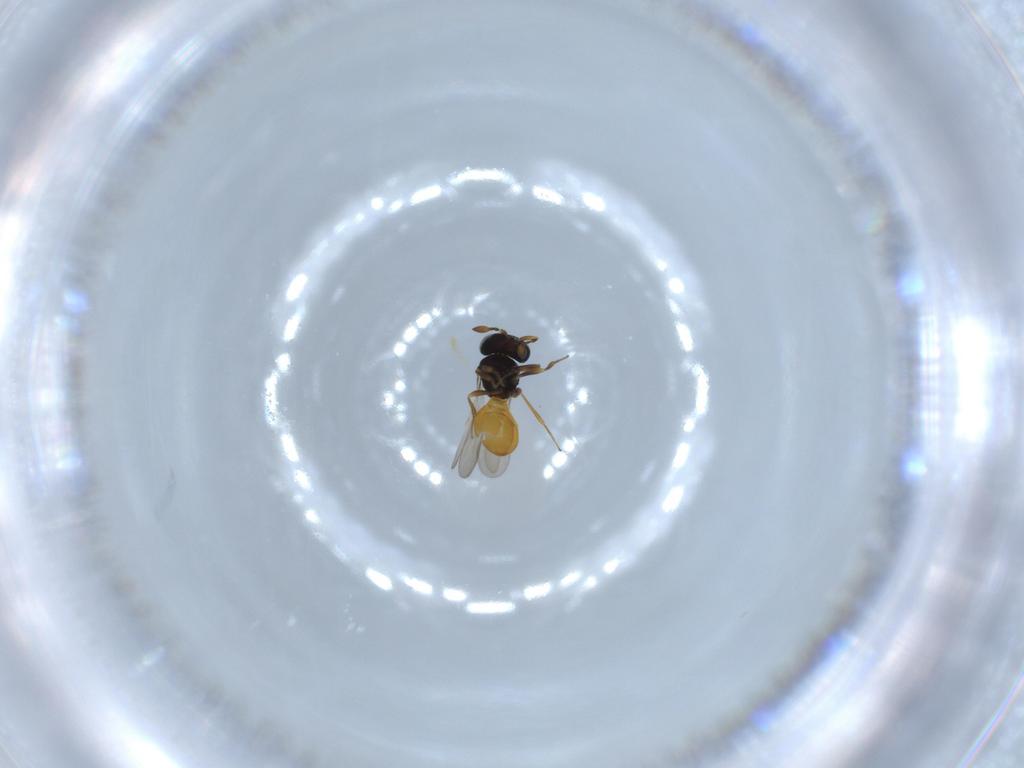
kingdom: Animalia
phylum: Arthropoda
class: Insecta
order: Hymenoptera
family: Scelionidae
